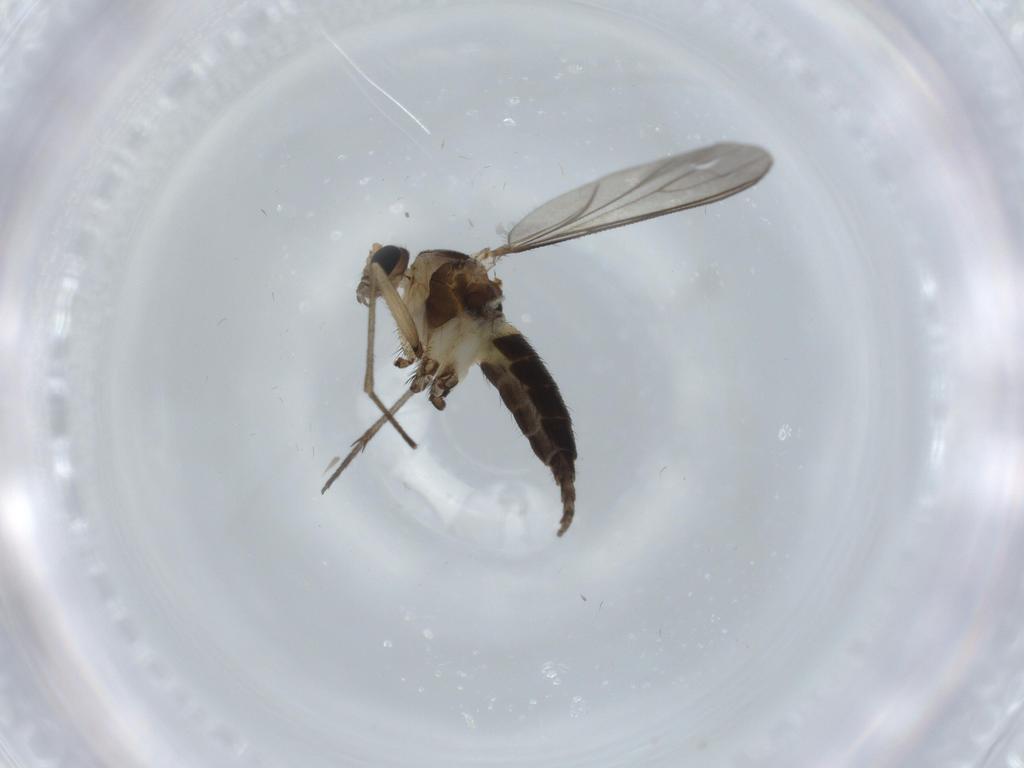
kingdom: Animalia
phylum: Arthropoda
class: Insecta
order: Diptera
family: Sciaridae
